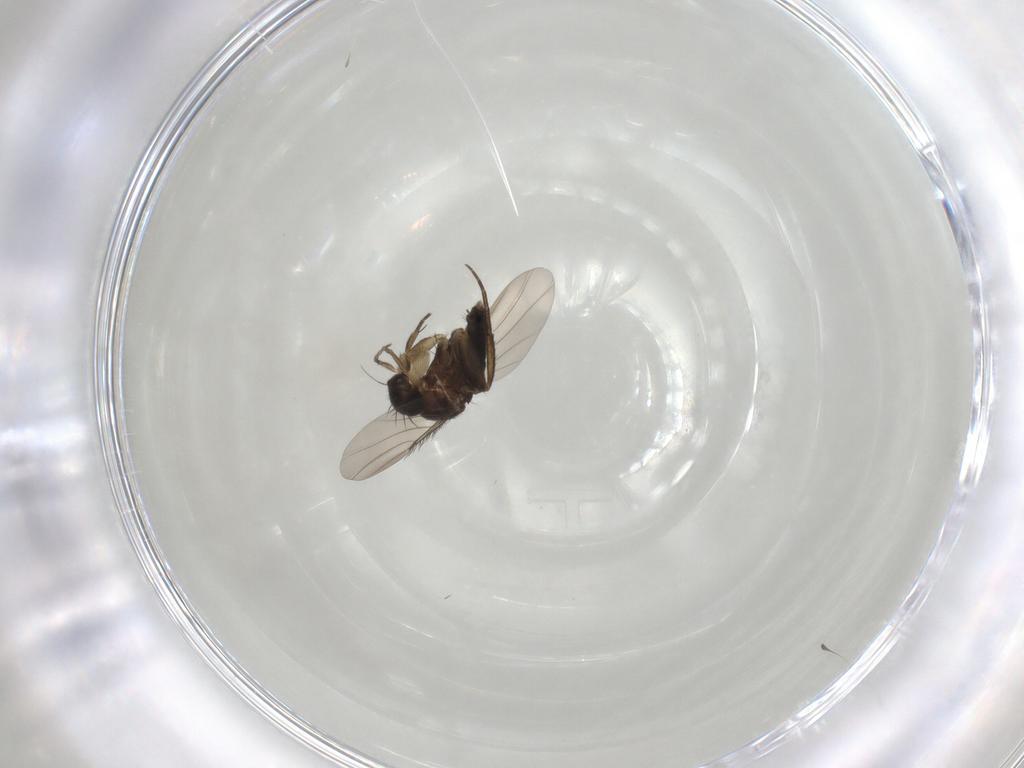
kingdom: Animalia
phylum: Arthropoda
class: Insecta
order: Diptera
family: Phoridae
